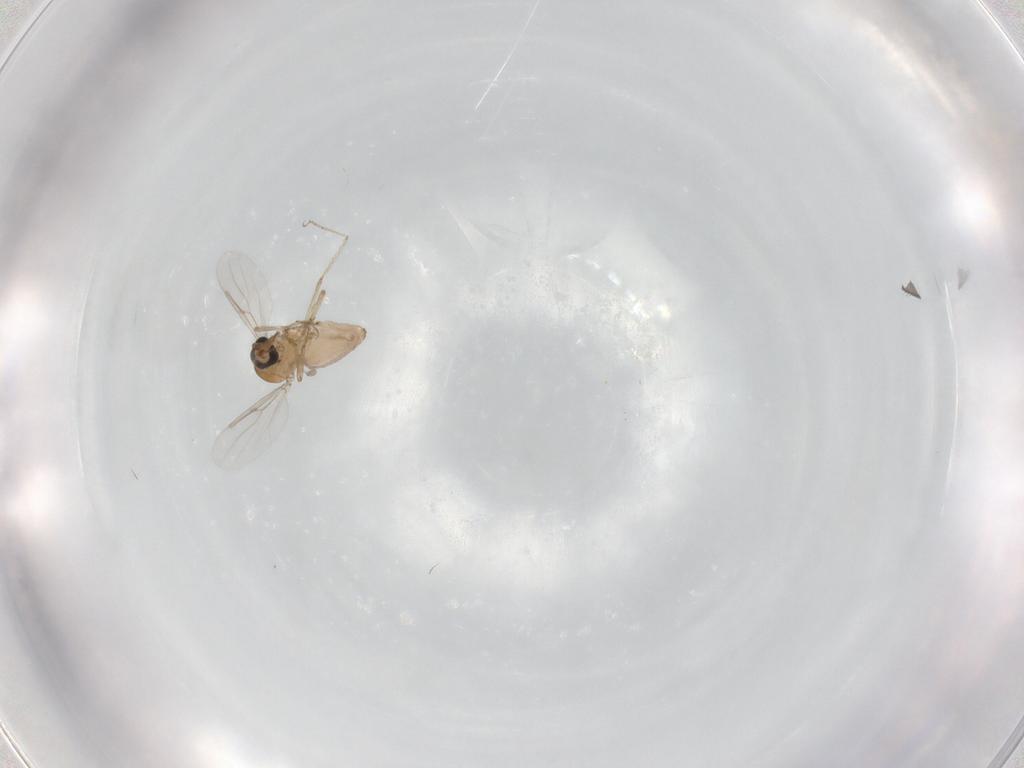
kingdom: Animalia
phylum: Arthropoda
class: Insecta
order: Diptera
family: Ceratopogonidae
